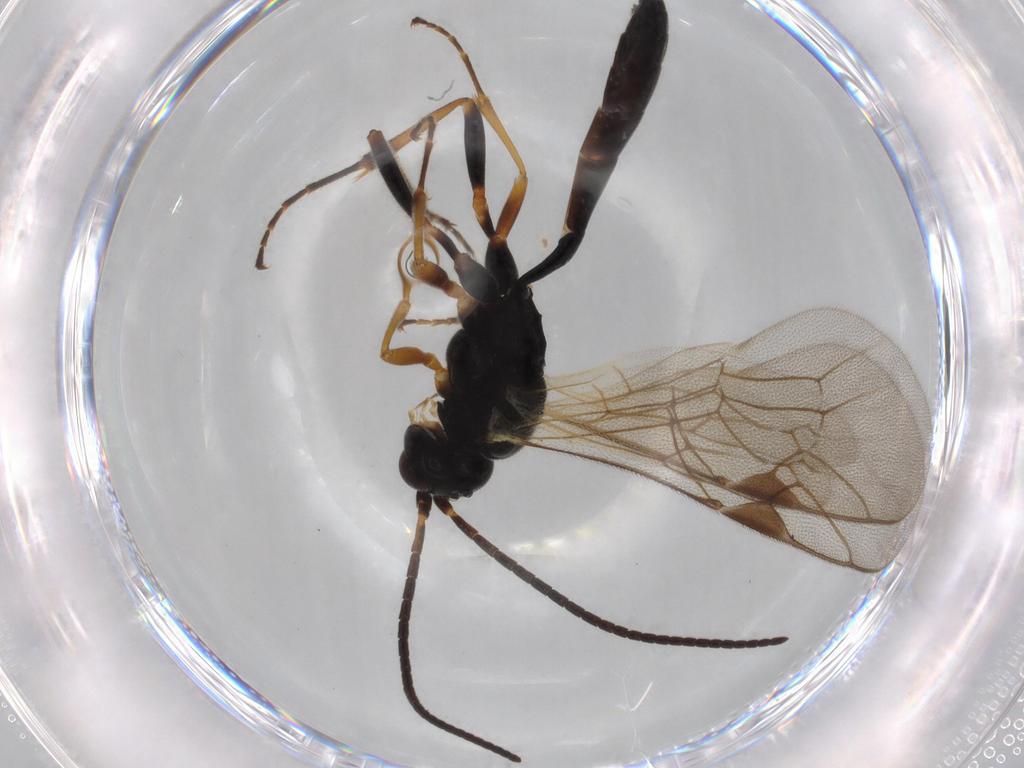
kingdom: Animalia
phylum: Arthropoda
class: Insecta
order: Hymenoptera
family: Ichneumonidae
